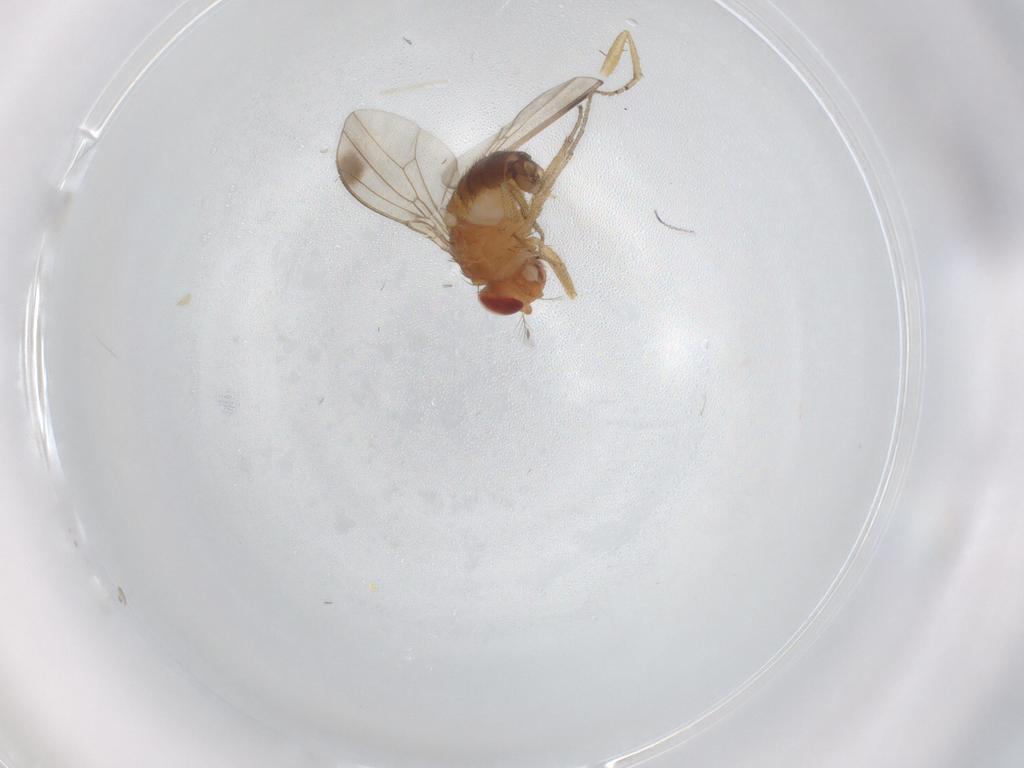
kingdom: Animalia
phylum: Arthropoda
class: Insecta
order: Diptera
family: Drosophilidae
